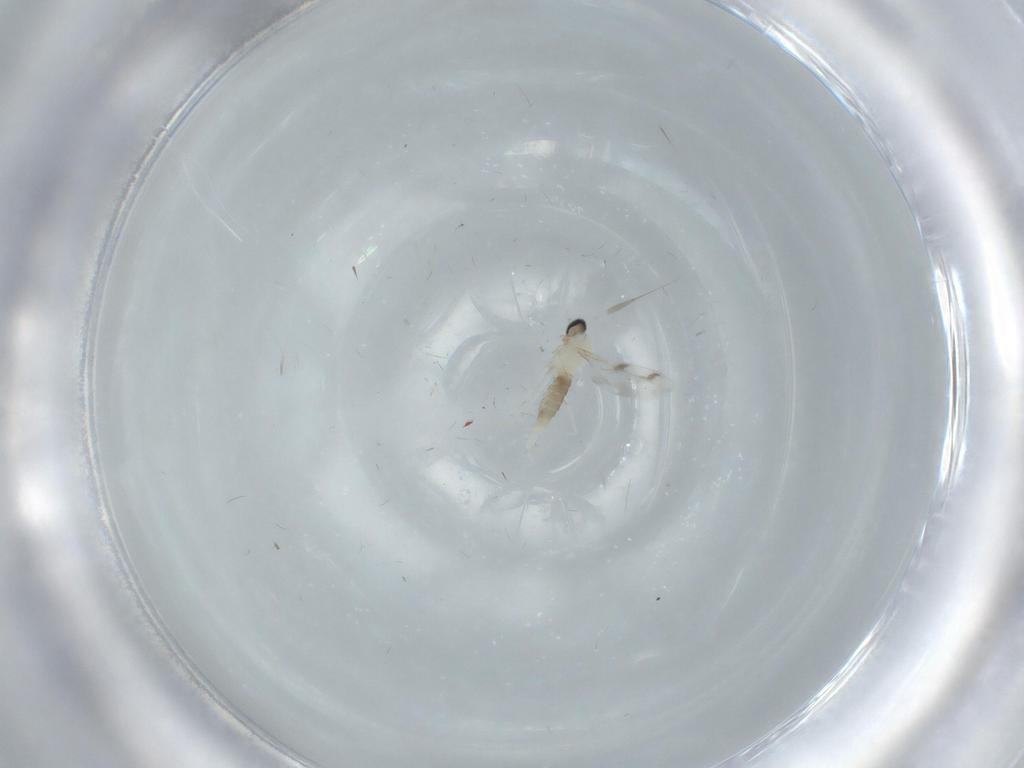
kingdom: Animalia
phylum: Arthropoda
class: Insecta
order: Diptera
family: Sciaridae
